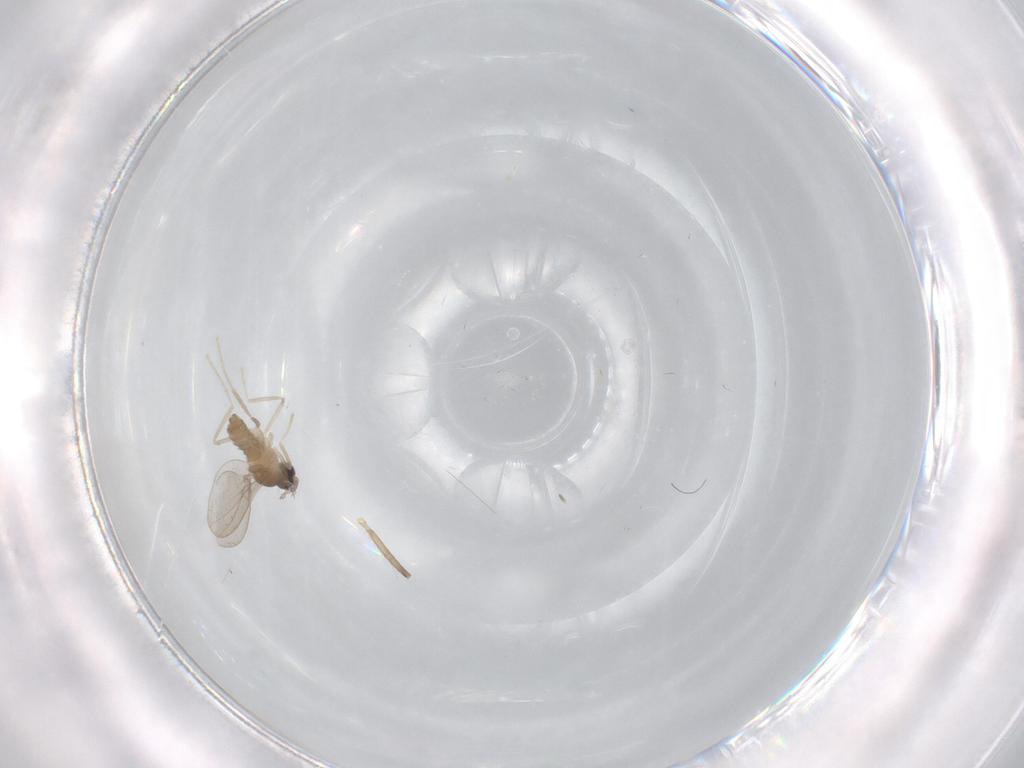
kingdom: Animalia
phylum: Arthropoda
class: Insecta
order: Diptera
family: Cecidomyiidae
